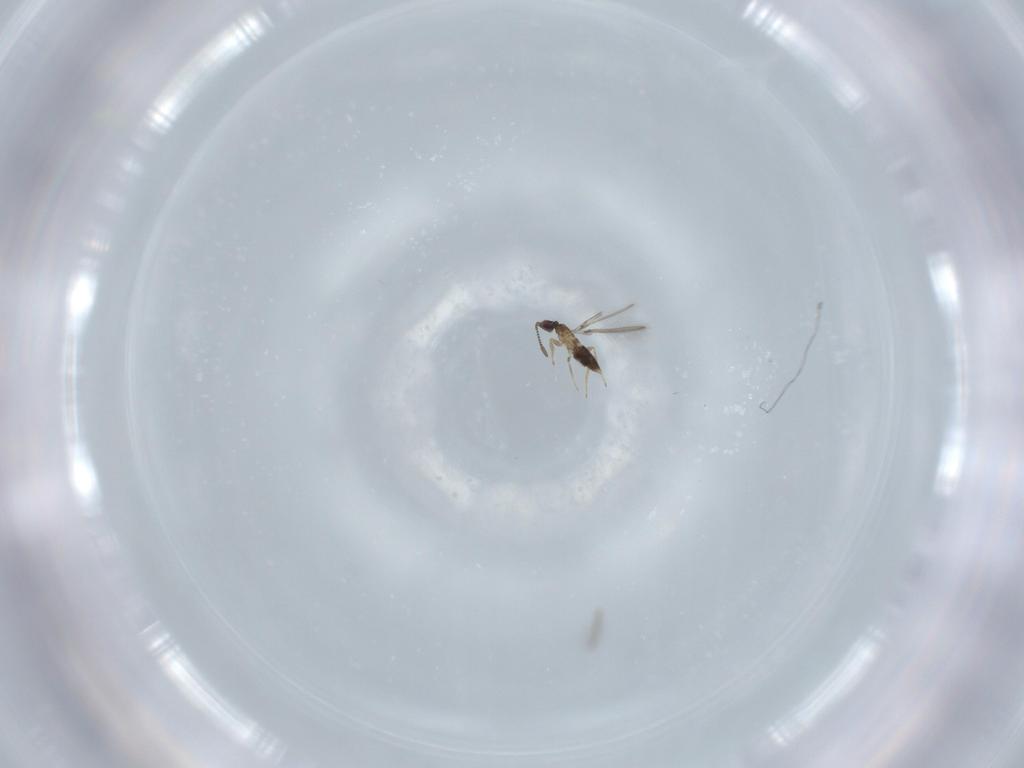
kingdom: Animalia
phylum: Arthropoda
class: Insecta
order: Hymenoptera
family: Mymaridae
